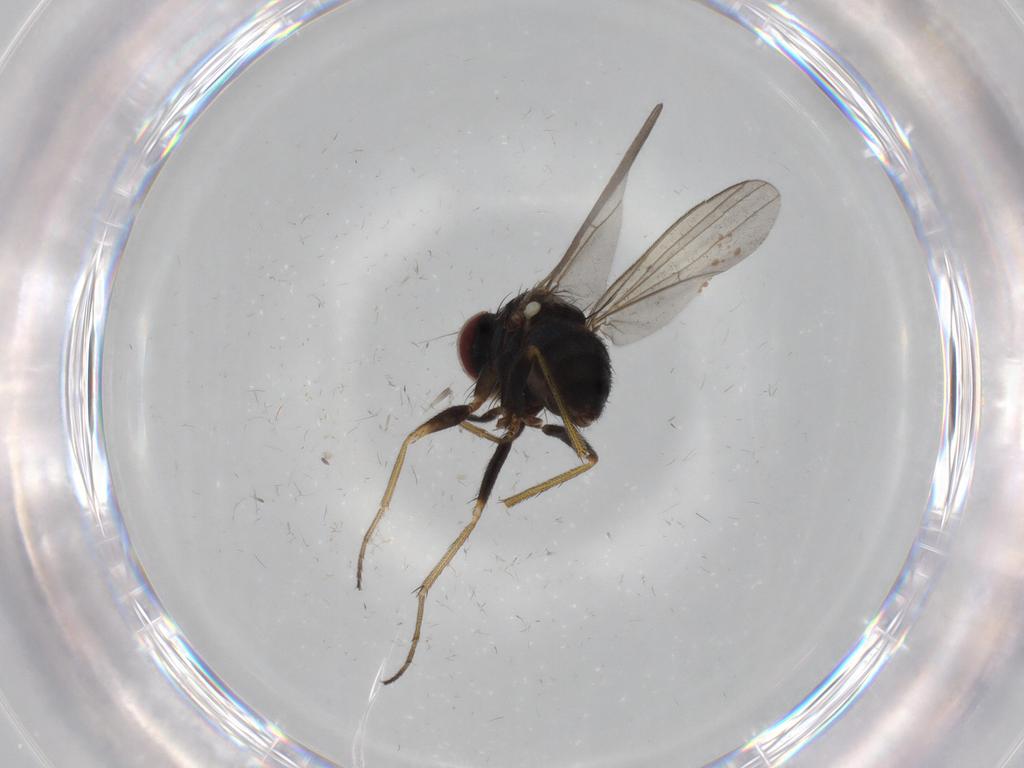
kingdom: Animalia
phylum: Arthropoda
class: Insecta
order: Diptera
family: Dolichopodidae
